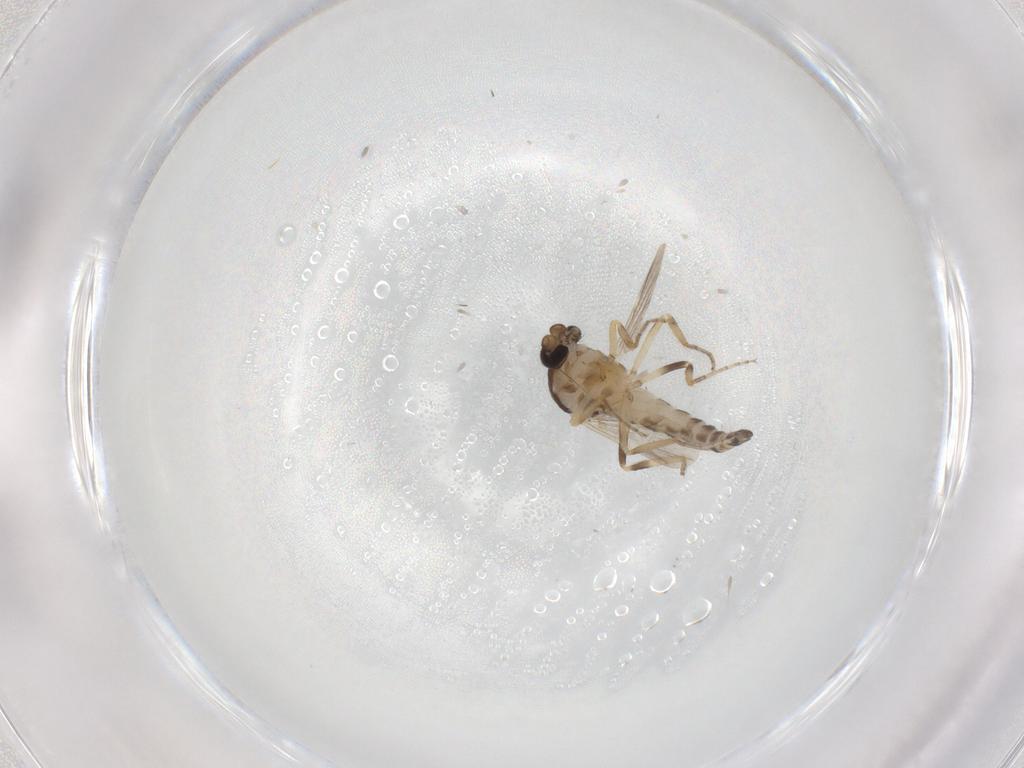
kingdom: Animalia
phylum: Arthropoda
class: Insecta
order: Diptera
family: Ceratopogonidae
